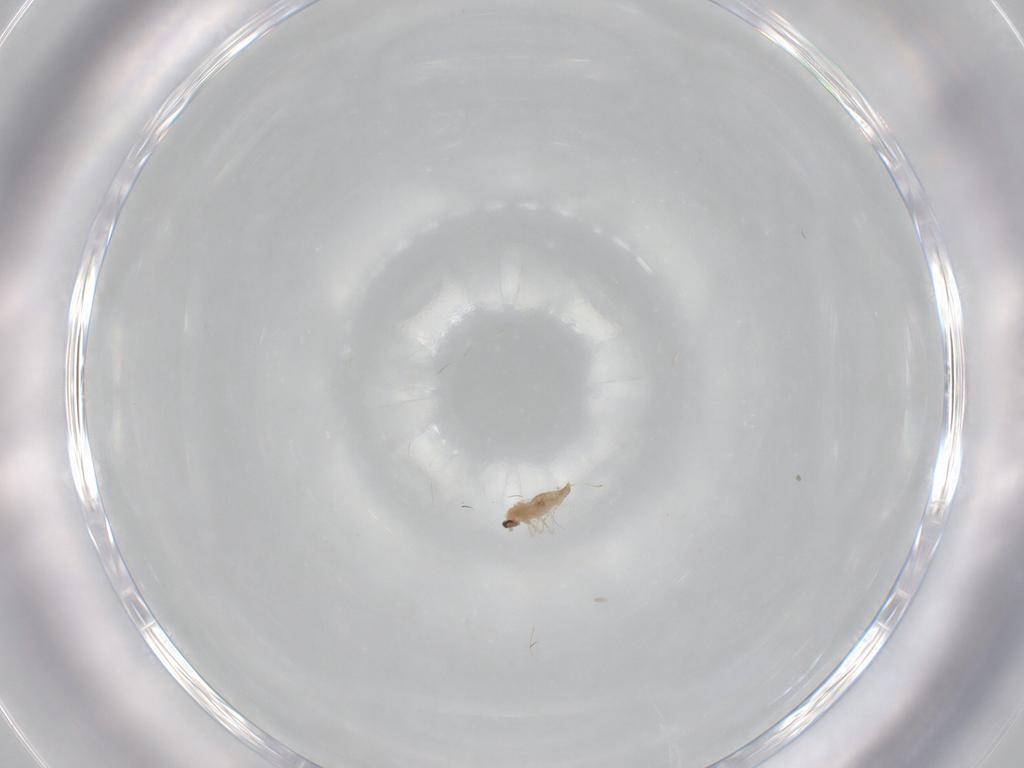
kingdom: Animalia
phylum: Arthropoda
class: Insecta
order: Diptera
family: Cecidomyiidae
